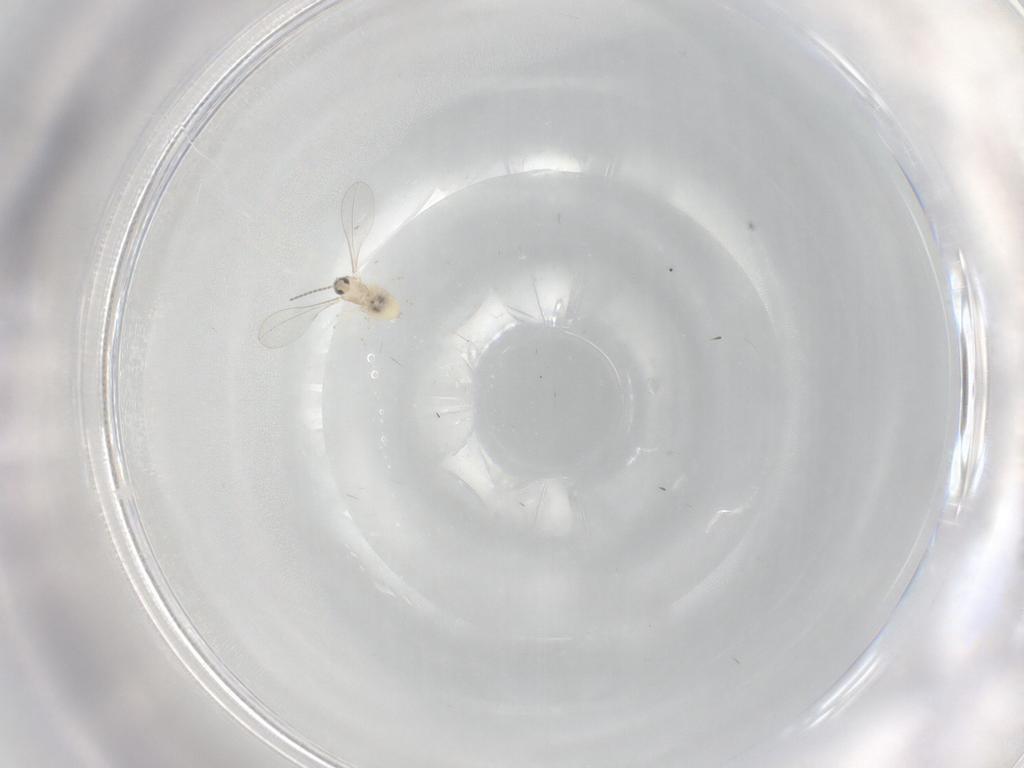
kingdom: Animalia
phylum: Arthropoda
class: Insecta
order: Diptera
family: Cecidomyiidae
